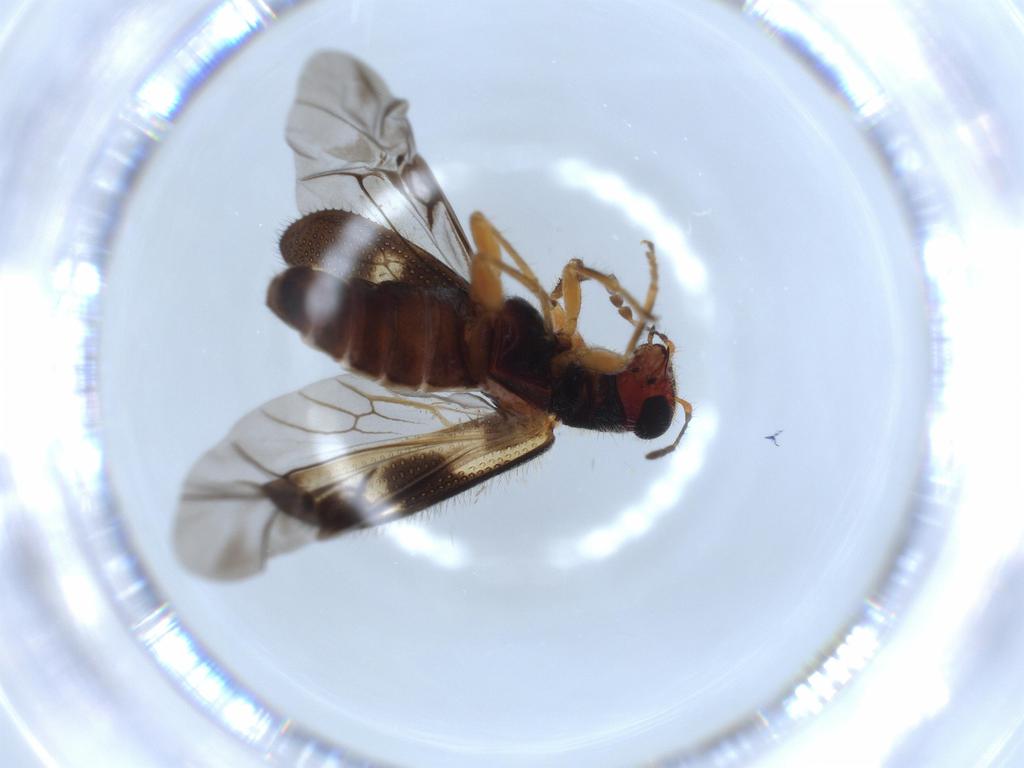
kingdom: Animalia
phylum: Arthropoda
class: Insecta
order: Coleoptera
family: Cleridae
